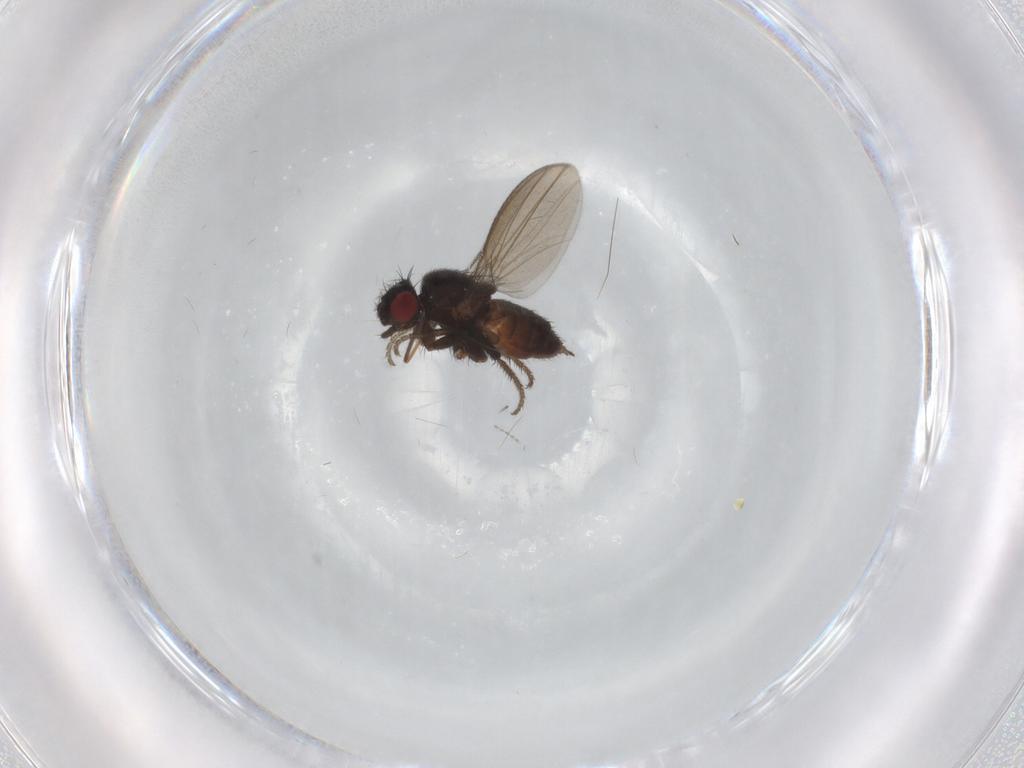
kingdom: Animalia
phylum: Arthropoda
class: Insecta
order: Diptera
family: Milichiidae
